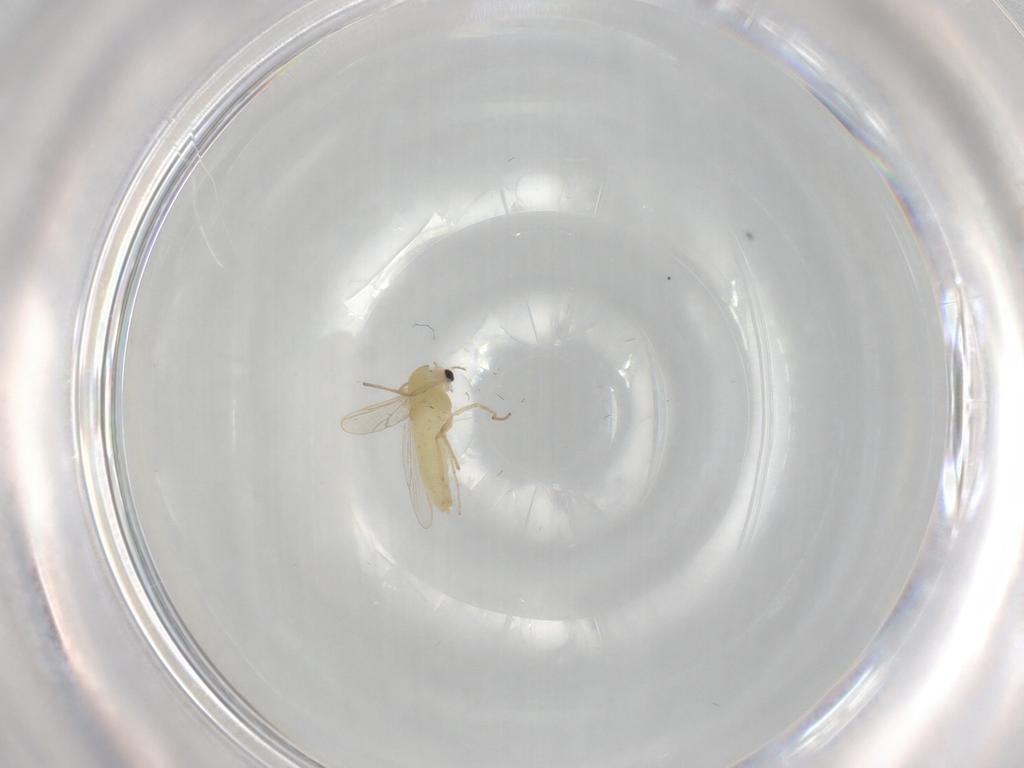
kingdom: Animalia
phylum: Arthropoda
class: Insecta
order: Diptera
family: Chironomidae
